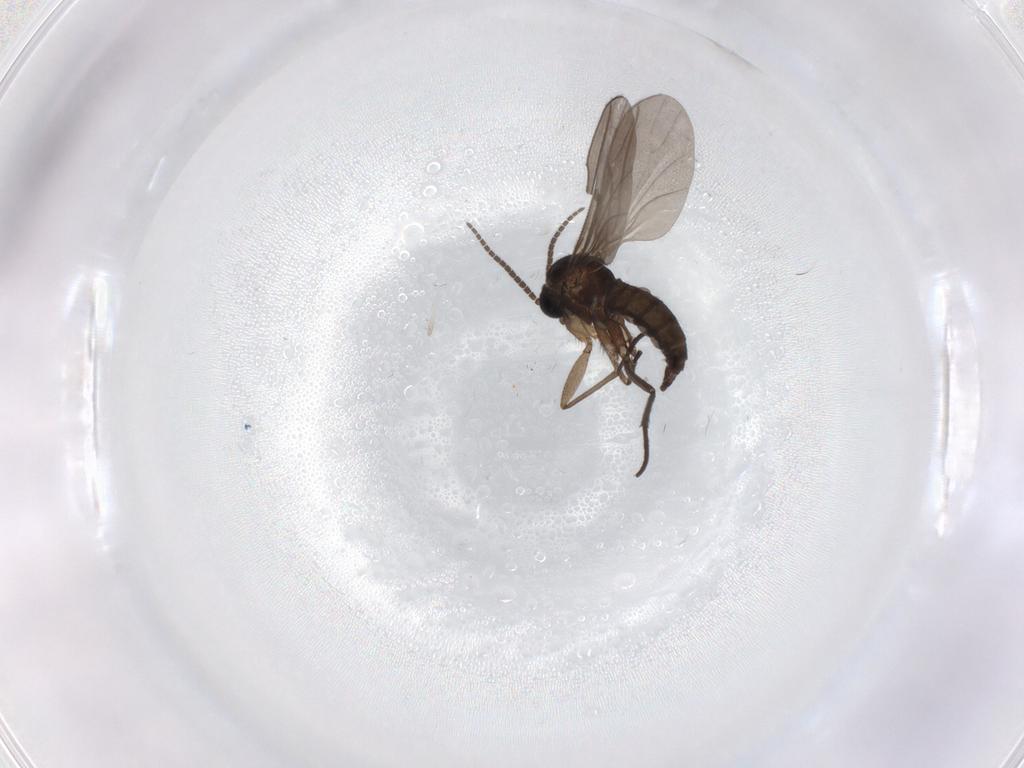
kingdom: Animalia
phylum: Arthropoda
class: Insecta
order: Diptera
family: Sciaridae
